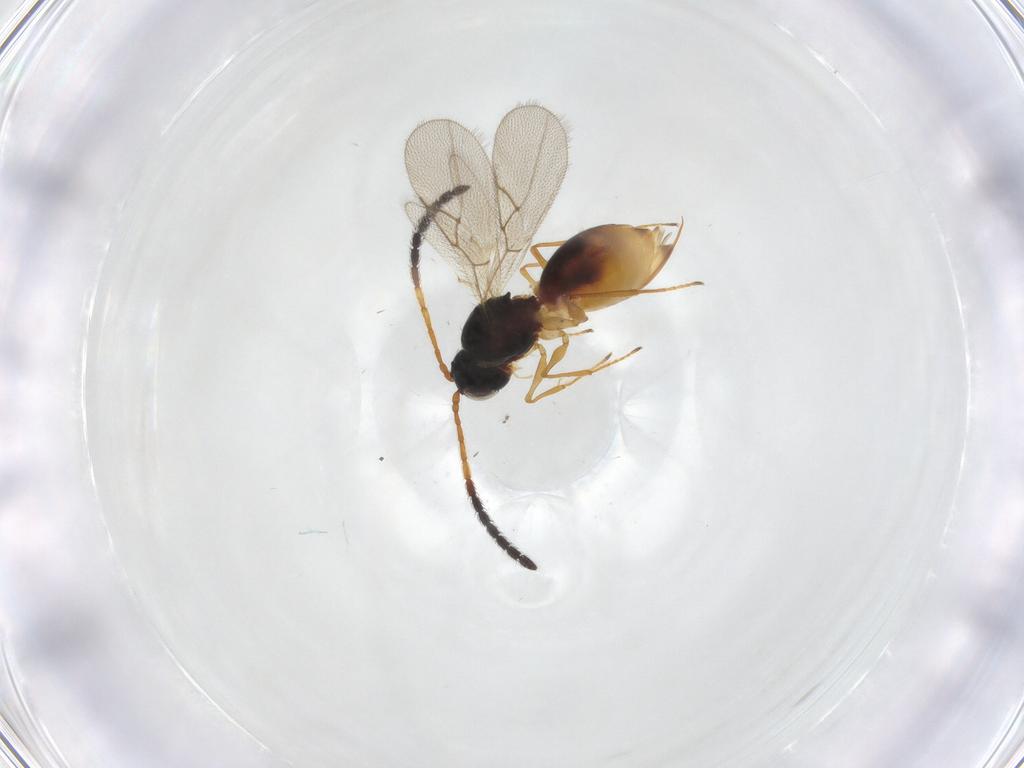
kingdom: Animalia
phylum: Arthropoda
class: Insecta
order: Hymenoptera
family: Figitidae
